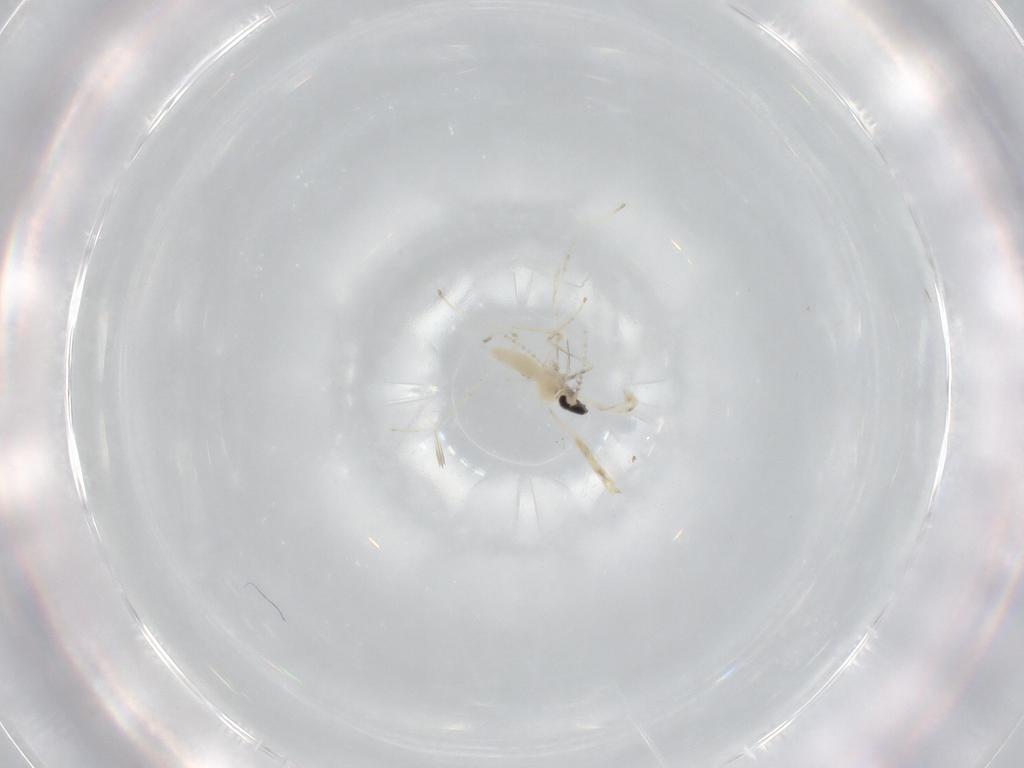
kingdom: Animalia
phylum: Arthropoda
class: Insecta
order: Diptera
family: Cecidomyiidae
